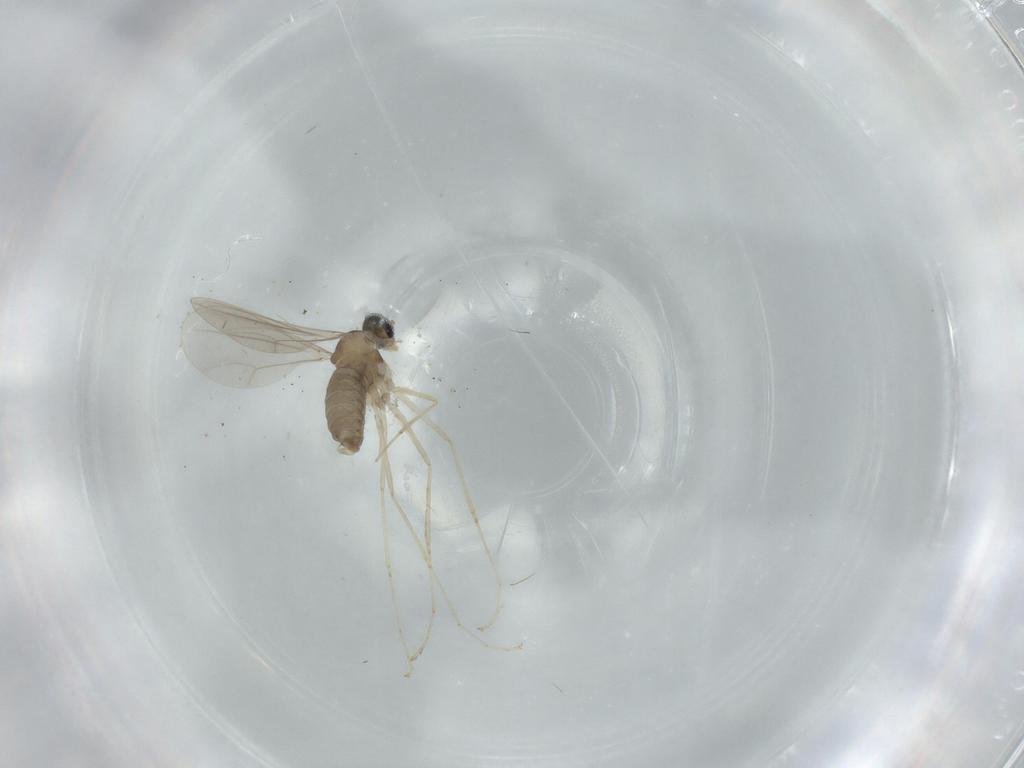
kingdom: Animalia
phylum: Arthropoda
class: Insecta
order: Diptera
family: Cecidomyiidae
